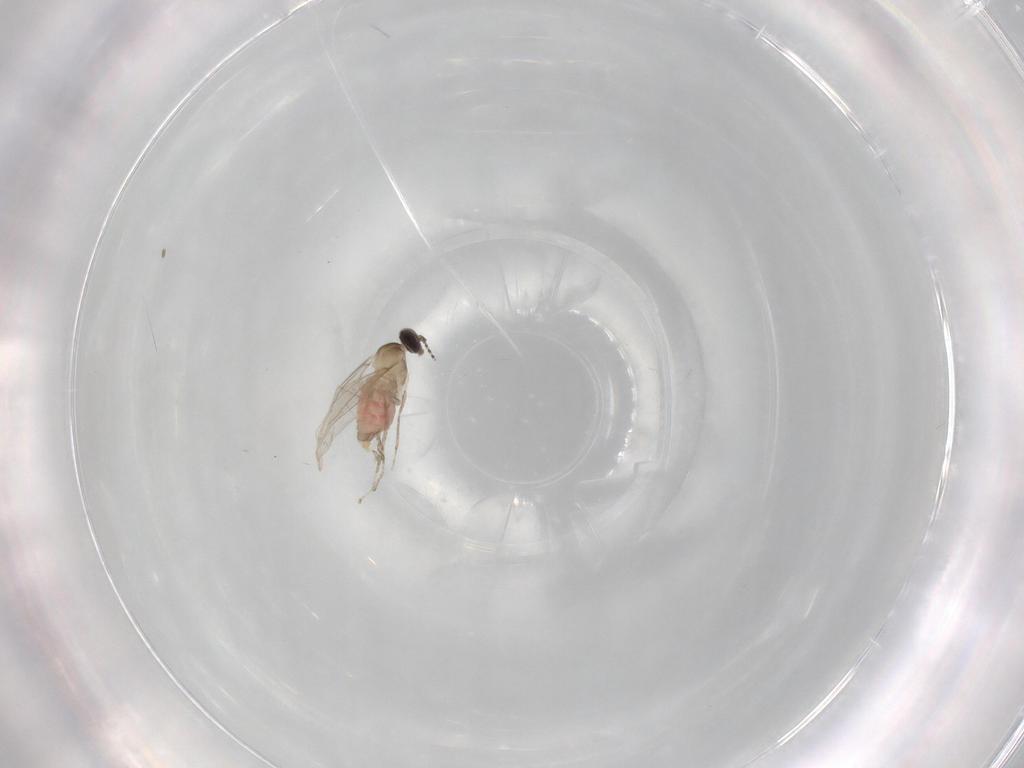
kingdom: Animalia
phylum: Arthropoda
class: Insecta
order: Diptera
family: Cecidomyiidae
